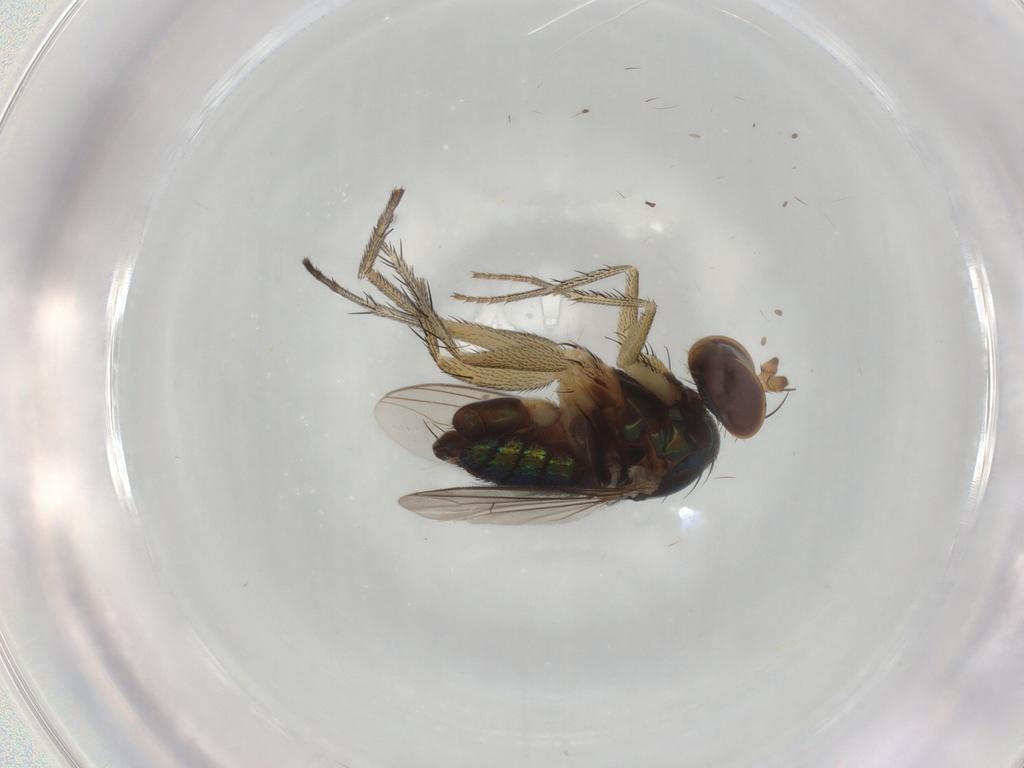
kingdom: Animalia
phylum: Arthropoda
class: Insecta
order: Diptera
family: Dolichopodidae
